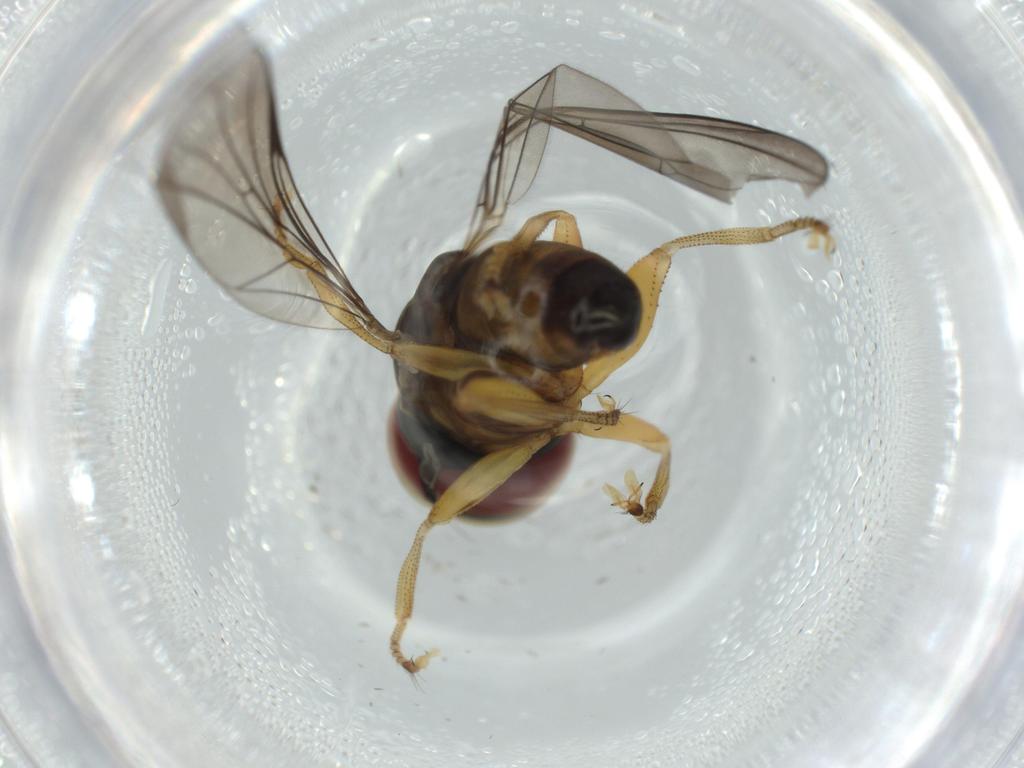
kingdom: Animalia
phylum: Arthropoda
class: Insecta
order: Diptera
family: Pipunculidae
